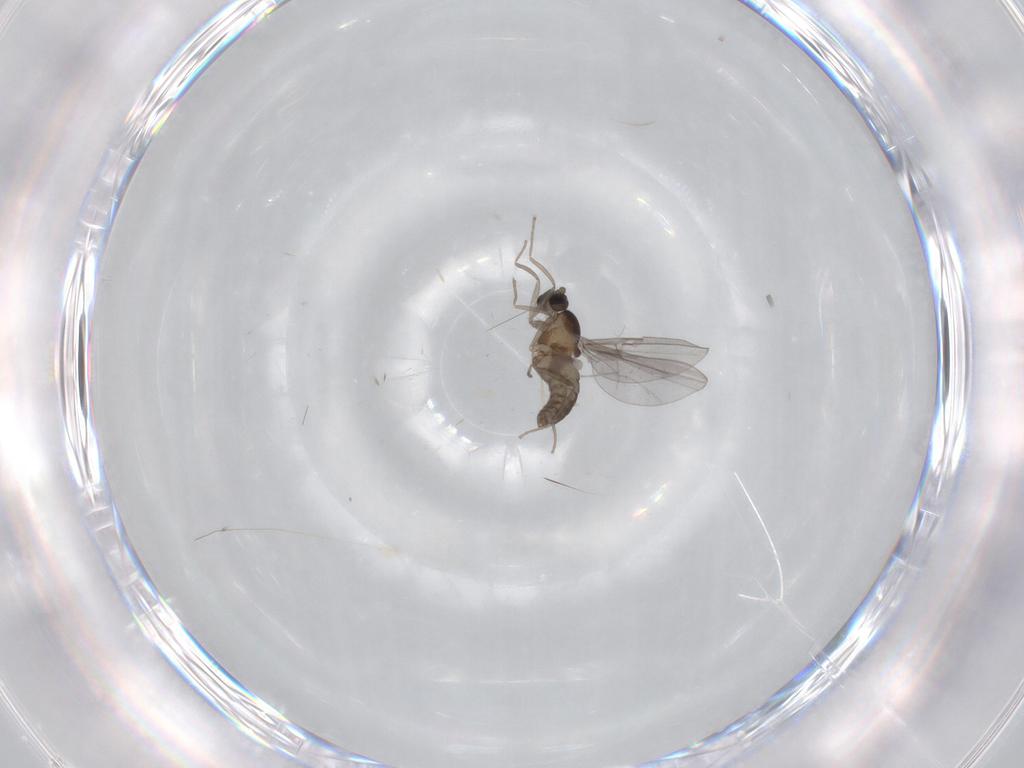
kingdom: Animalia
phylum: Arthropoda
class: Insecta
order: Diptera
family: Cecidomyiidae
